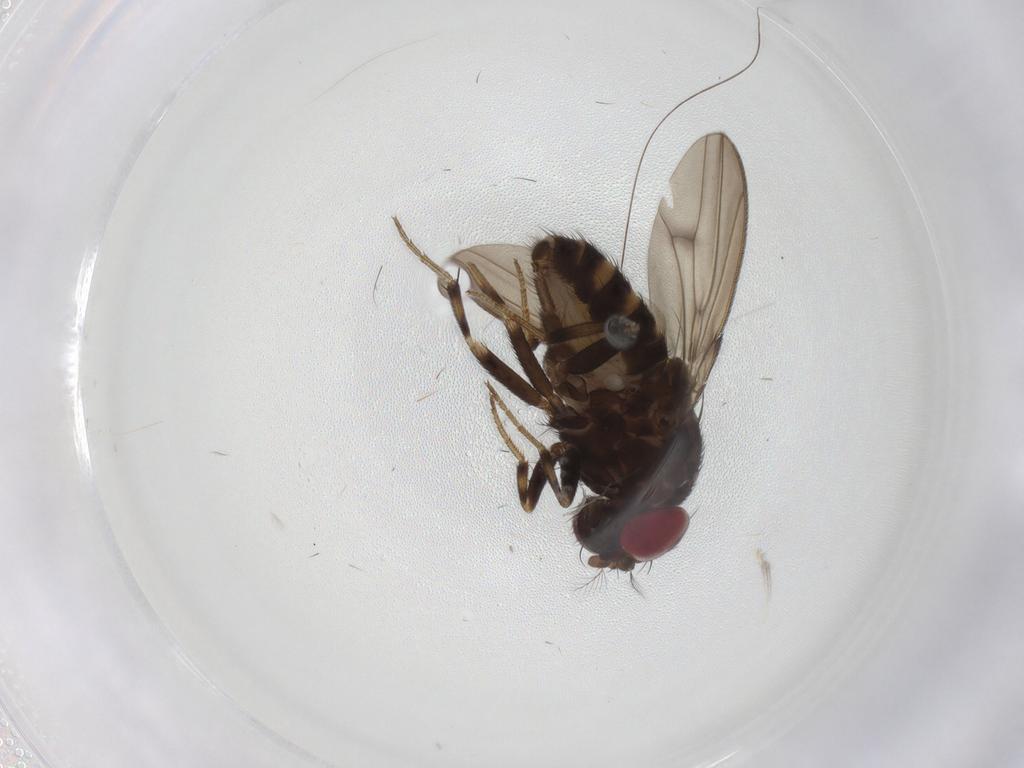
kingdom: Animalia
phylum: Arthropoda
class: Insecta
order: Diptera
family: Drosophilidae
